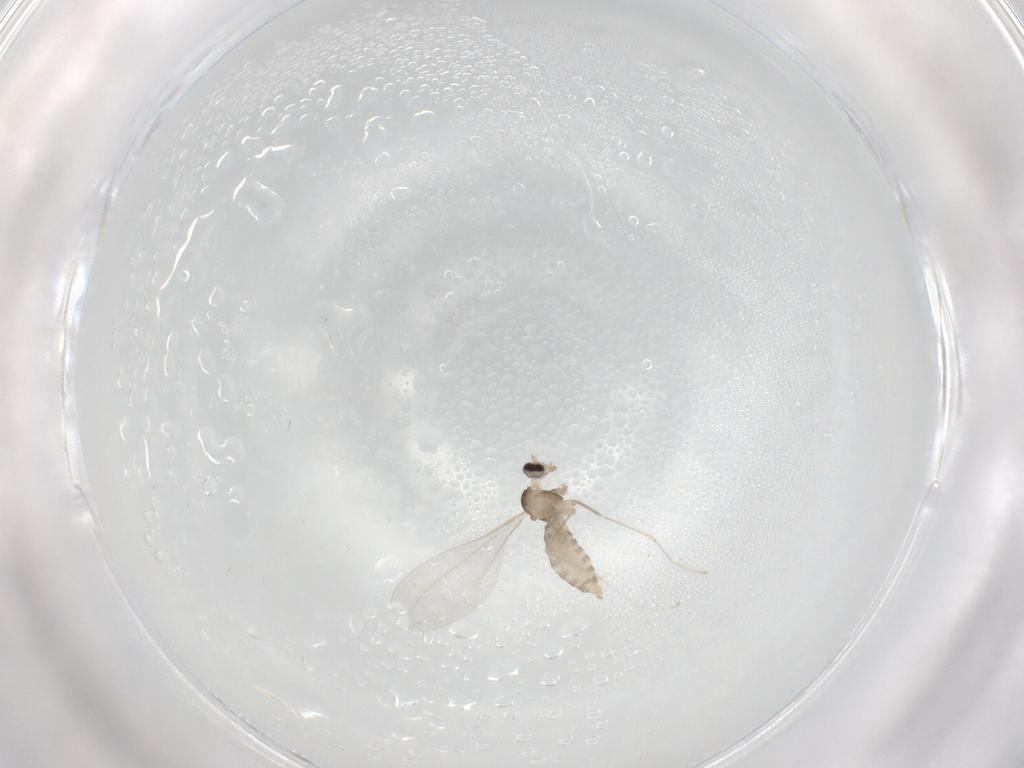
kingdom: Animalia
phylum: Arthropoda
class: Insecta
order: Diptera
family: Cecidomyiidae
